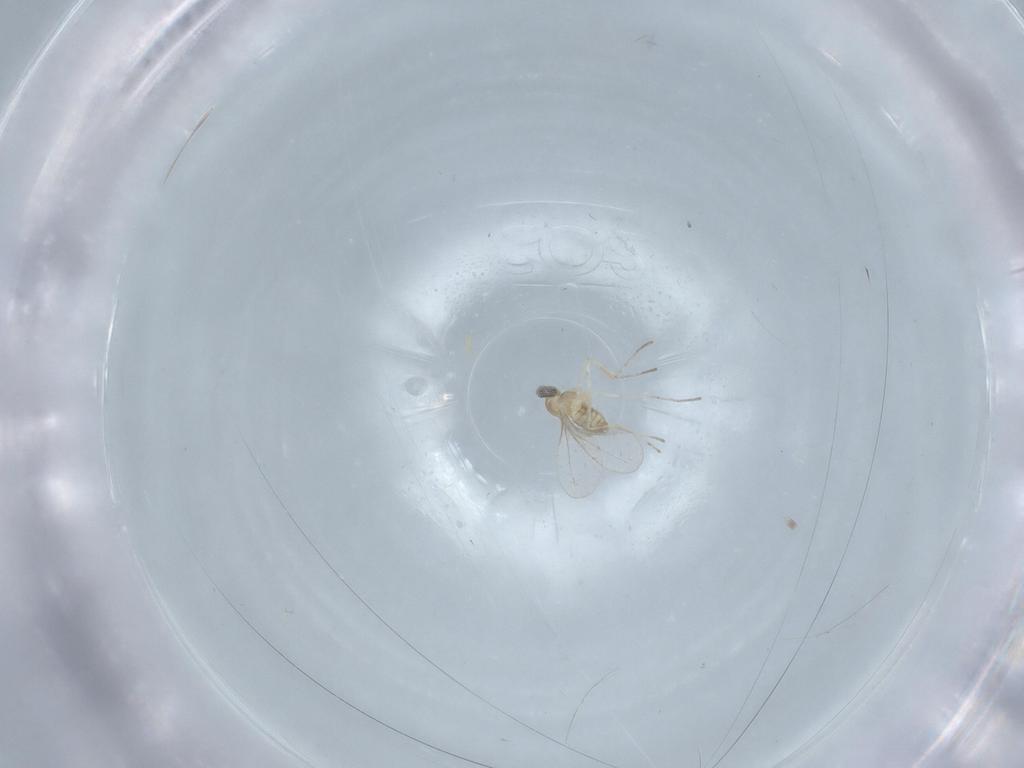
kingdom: Animalia
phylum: Arthropoda
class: Insecta
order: Diptera
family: Cecidomyiidae
